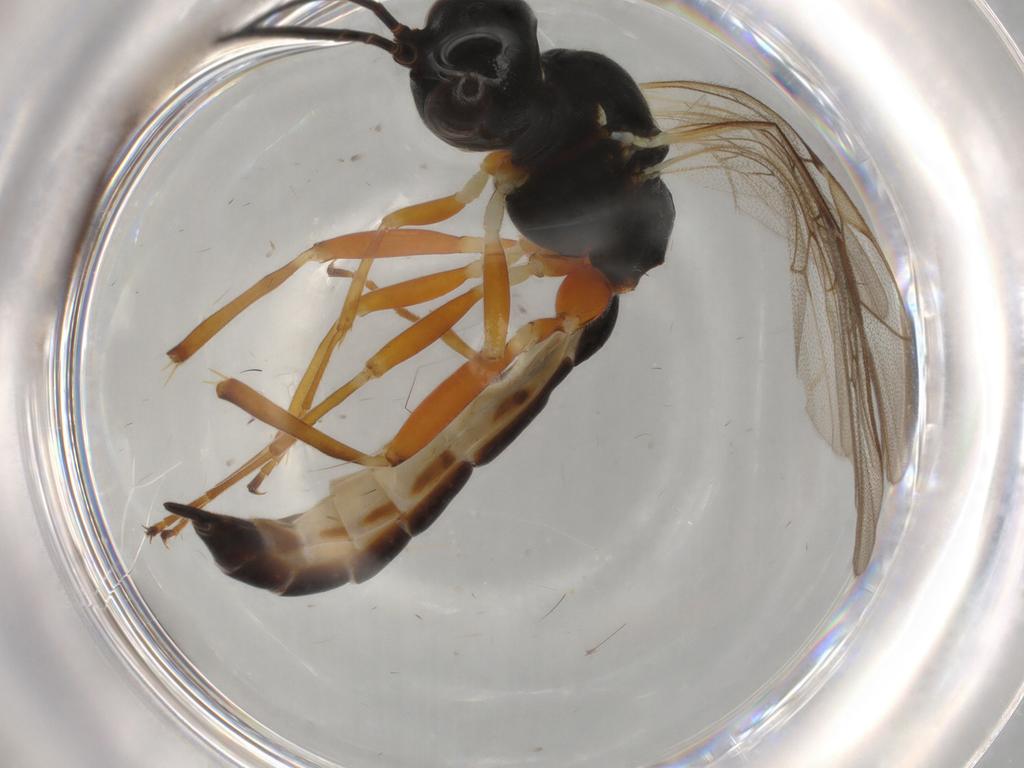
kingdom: Animalia
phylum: Arthropoda
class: Insecta
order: Hymenoptera
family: Ichneumonidae
